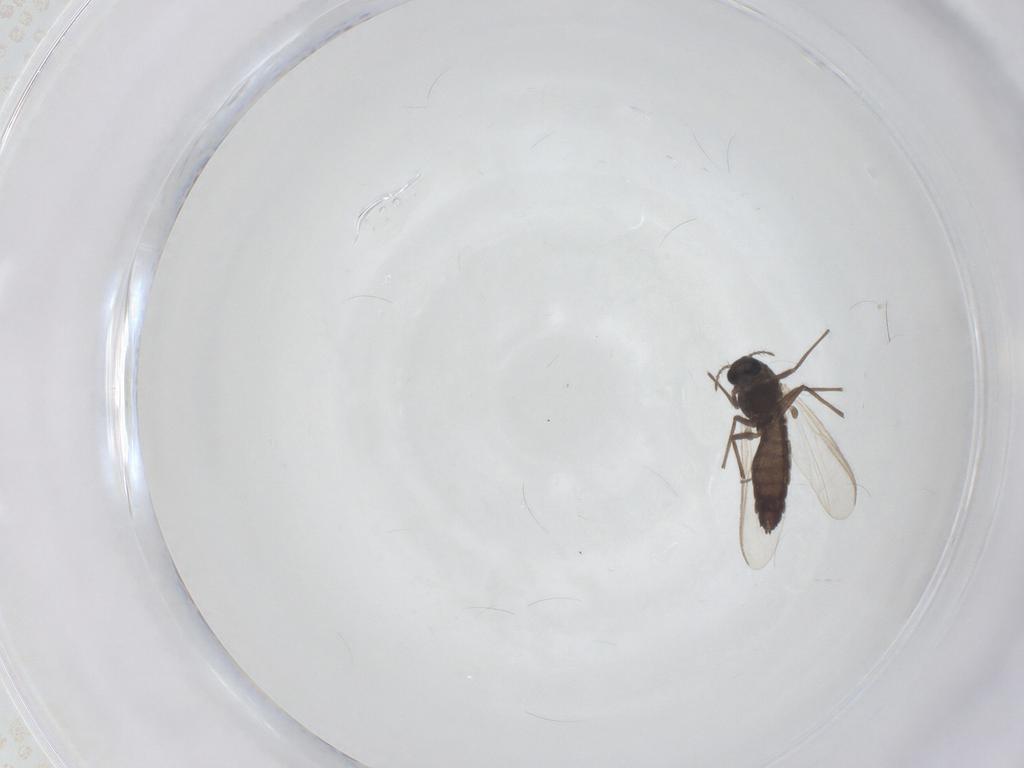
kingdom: Animalia
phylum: Arthropoda
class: Insecta
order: Diptera
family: Chironomidae
